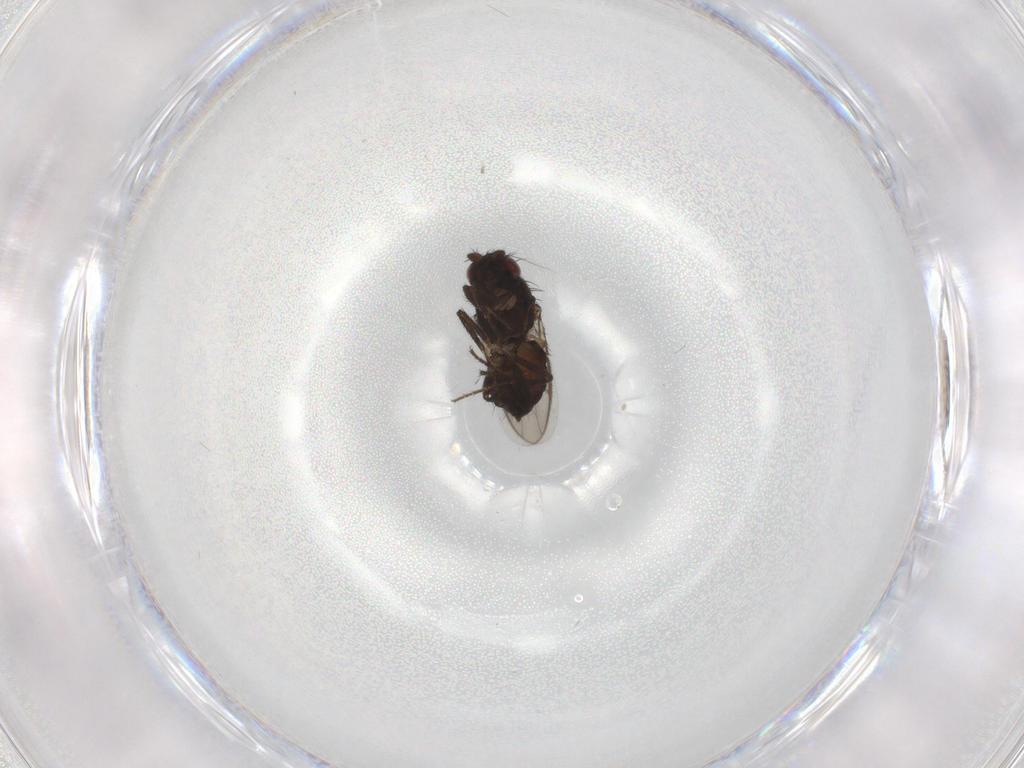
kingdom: Animalia
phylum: Arthropoda
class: Insecta
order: Diptera
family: Sphaeroceridae
